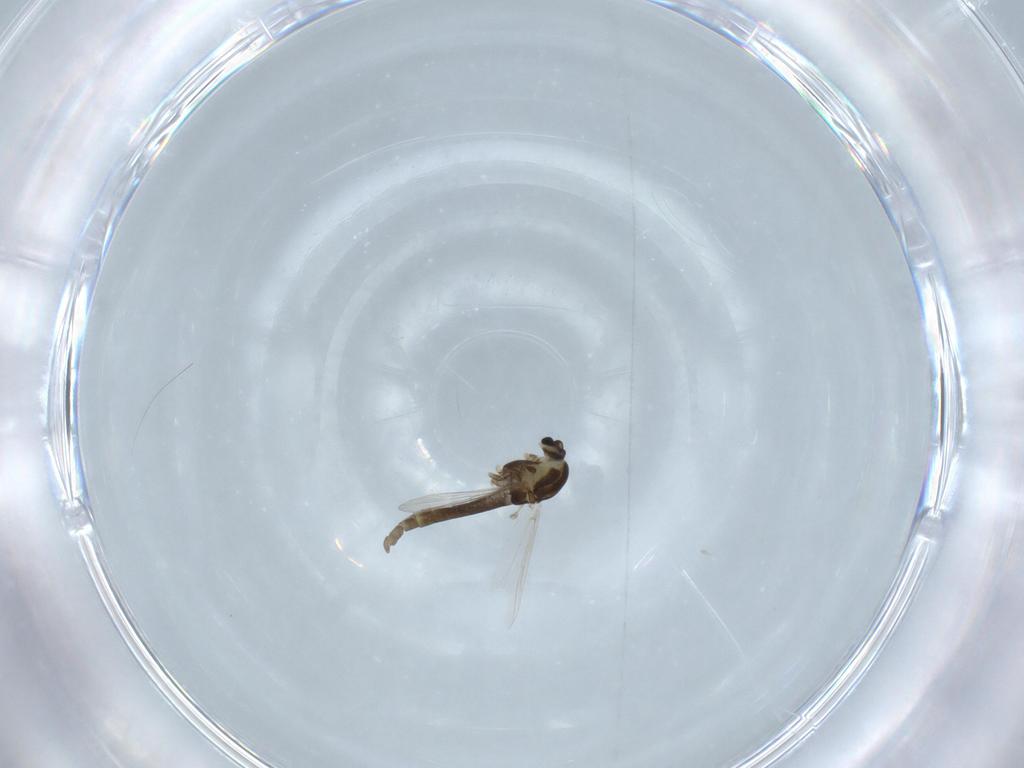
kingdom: Animalia
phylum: Arthropoda
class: Insecta
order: Diptera
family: Chironomidae
